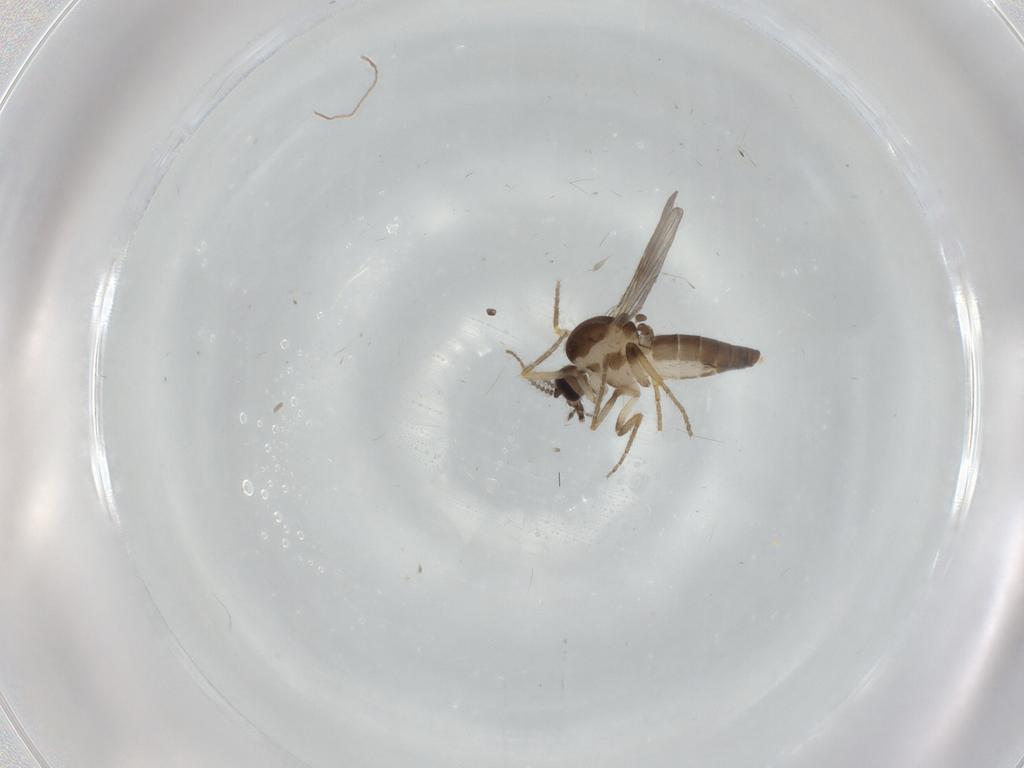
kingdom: Animalia
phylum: Arthropoda
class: Insecta
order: Diptera
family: Ceratopogonidae
